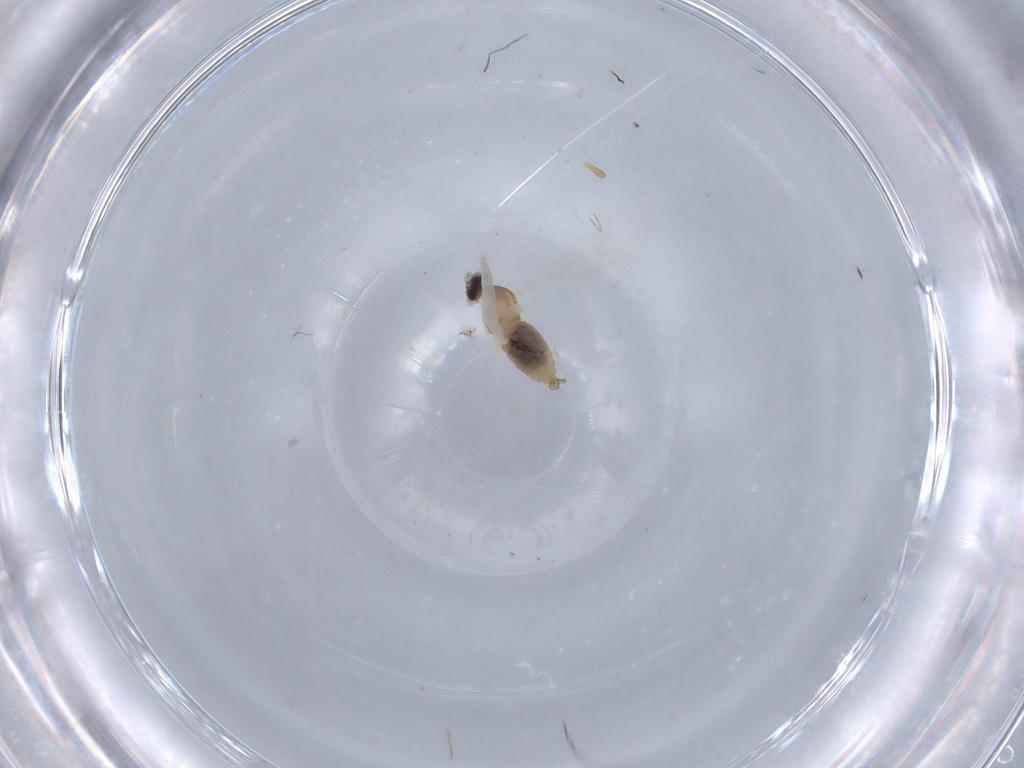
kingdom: Animalia
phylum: Arthropoda
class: Insecta
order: Diptera
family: Cecidomyiidae
